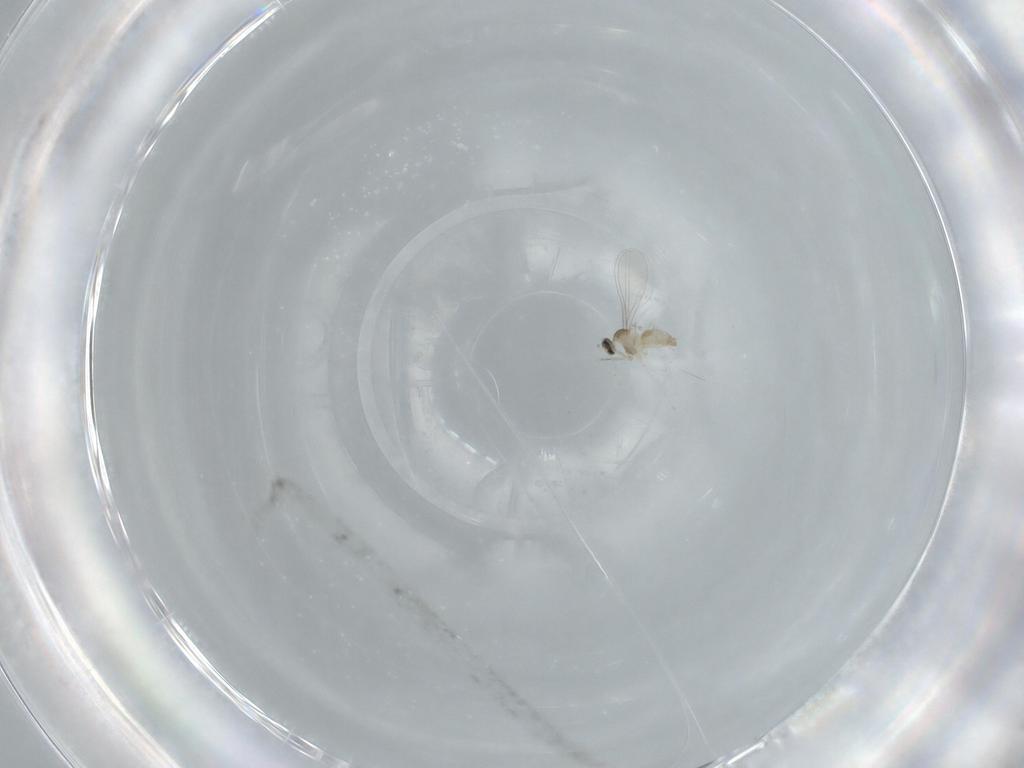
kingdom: Animalia
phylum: Arthropoda
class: Insecta
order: Diptera
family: Cecidomyiidae
